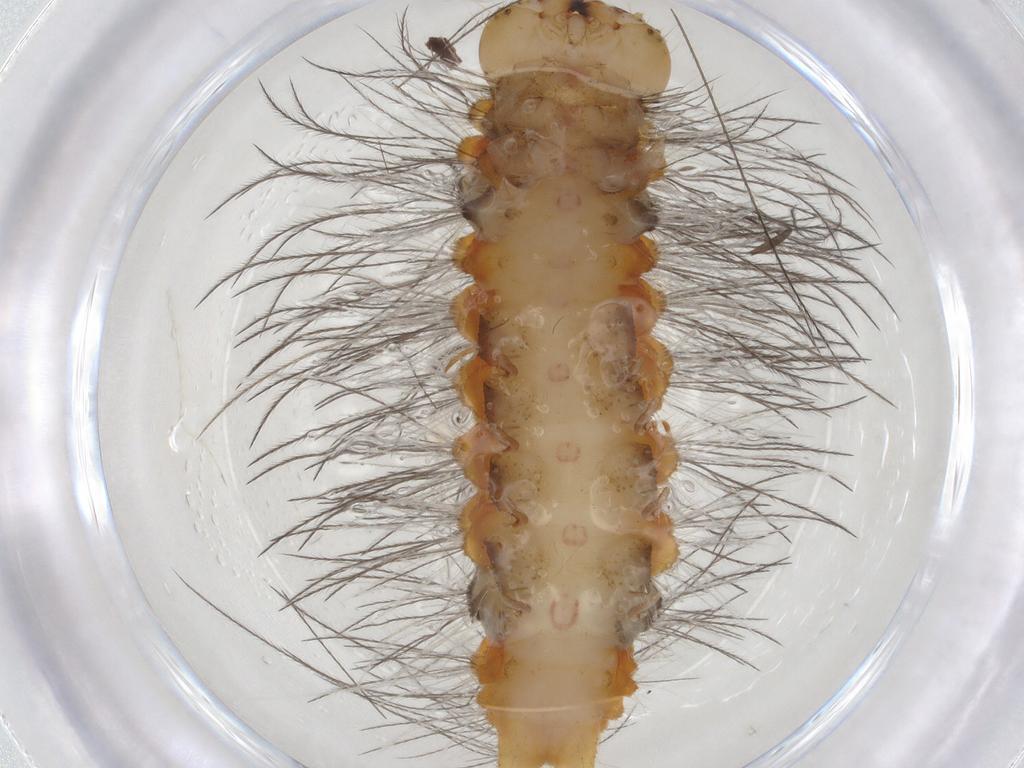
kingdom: Animalia
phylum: Arthropoda
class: Insecta
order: Lepidoptera
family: Erebidae
